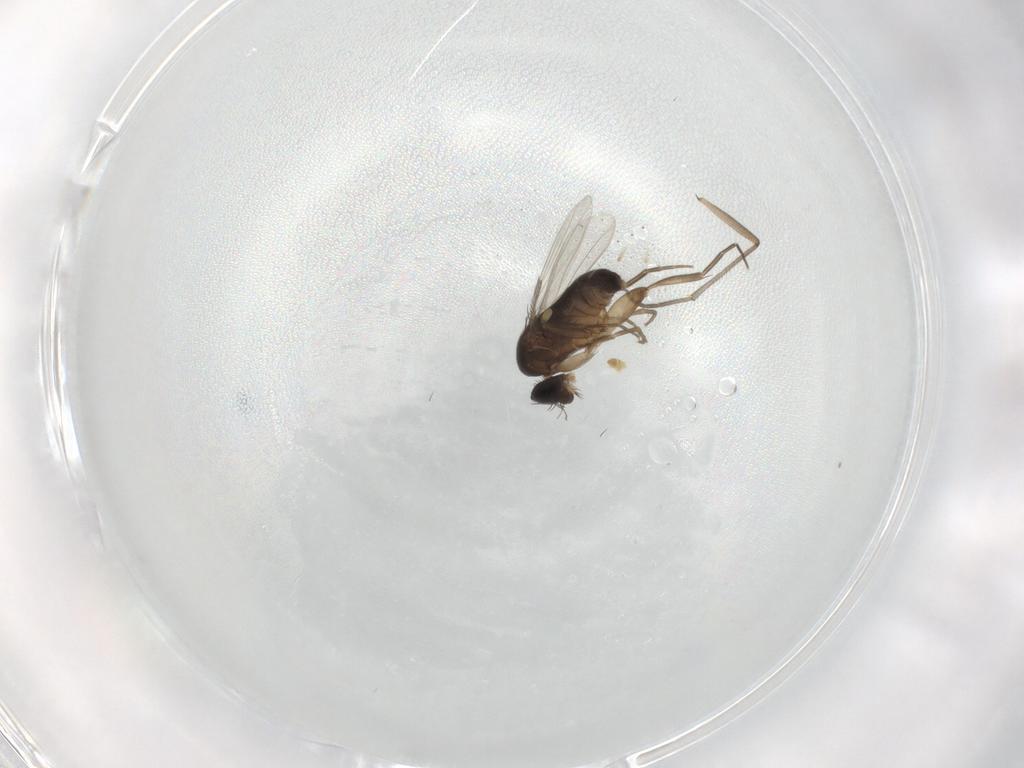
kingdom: Animalia
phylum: Arthropoda
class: Insecta
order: Diptera
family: Phoridae
